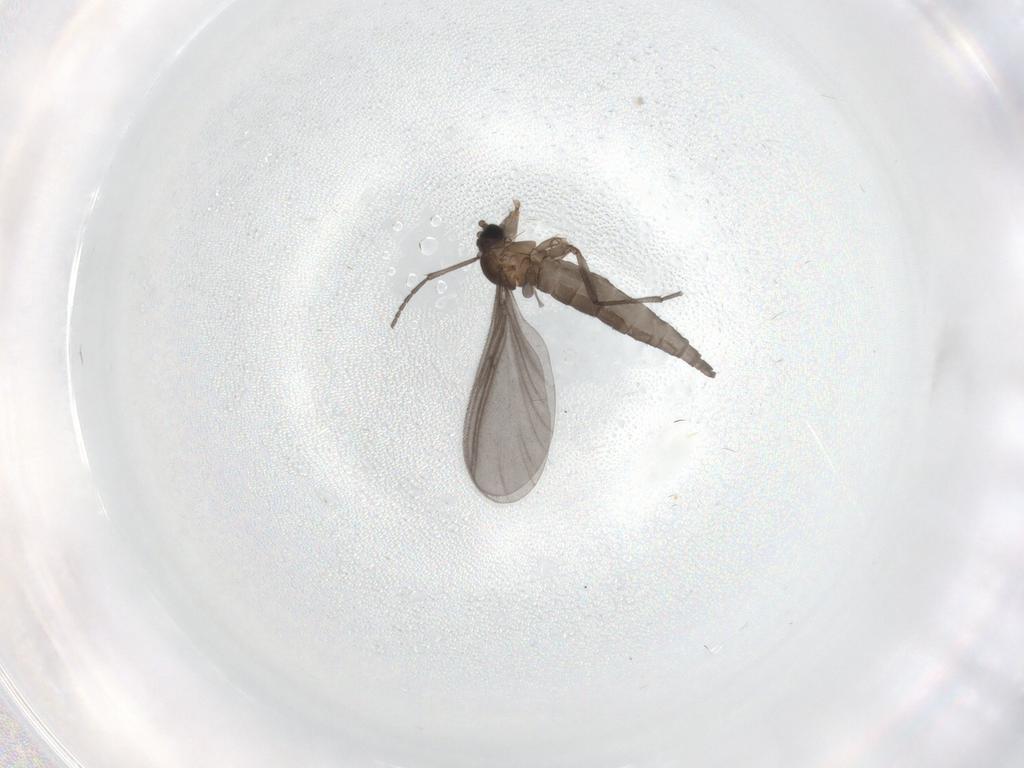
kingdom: Animalia
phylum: Arthropoda
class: Insecta
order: Diptera
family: Sciaridae
